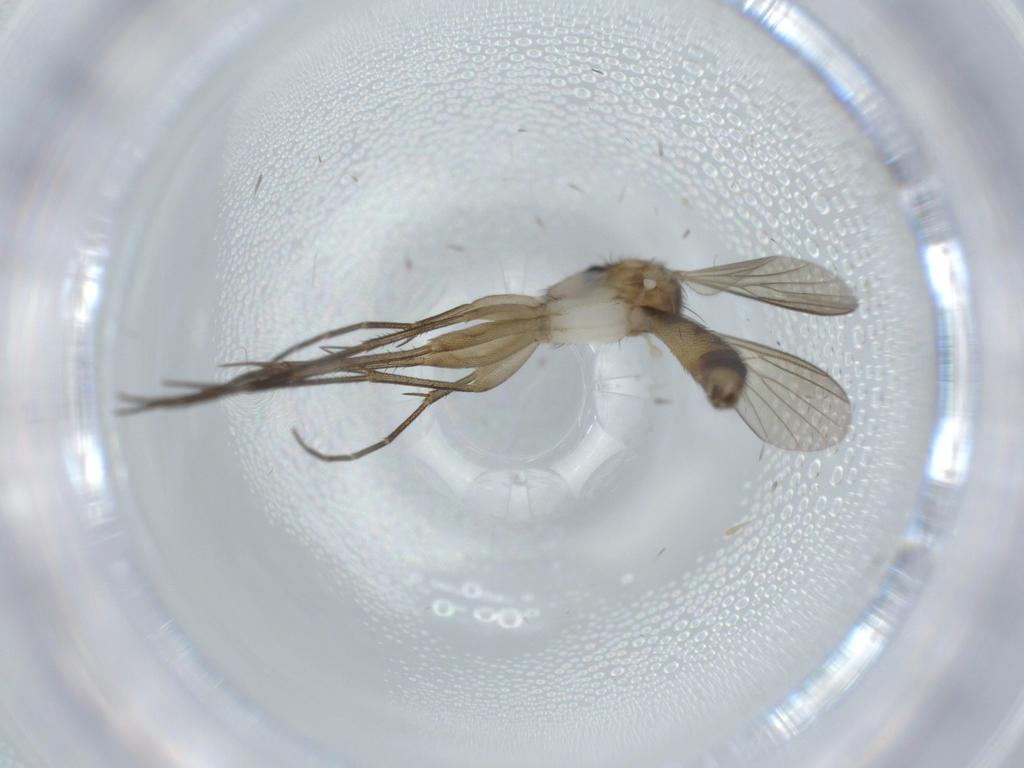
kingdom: Animalia
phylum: Arthropoda
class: Insecta
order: Diptera
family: Mycetophilidae
